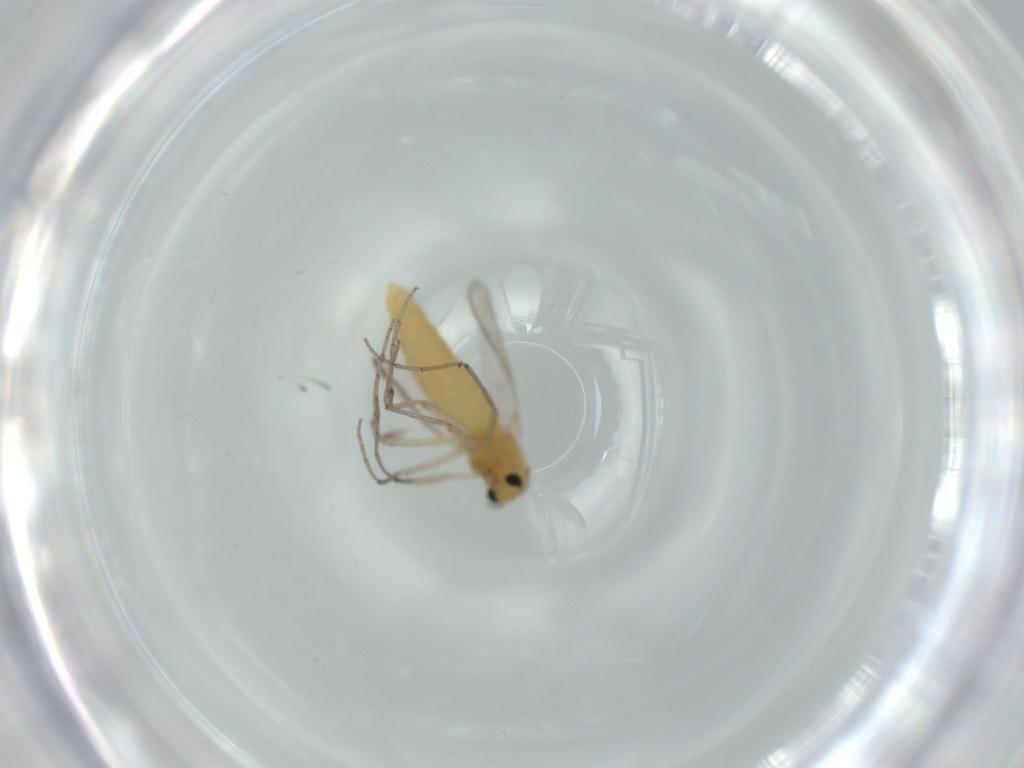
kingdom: Animalia
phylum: Arthropoda
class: Insecta
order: Diptera
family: Chironomidae
